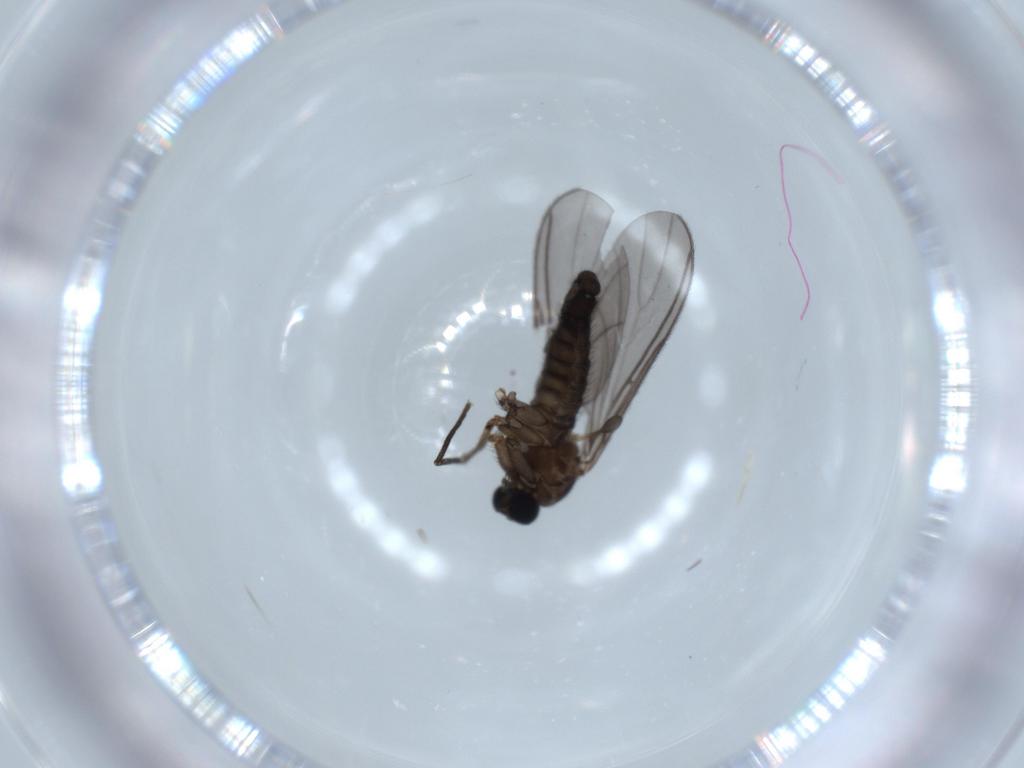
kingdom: Animalia
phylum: Arthropoda
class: Insecta
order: Diptera
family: Sciaridae
